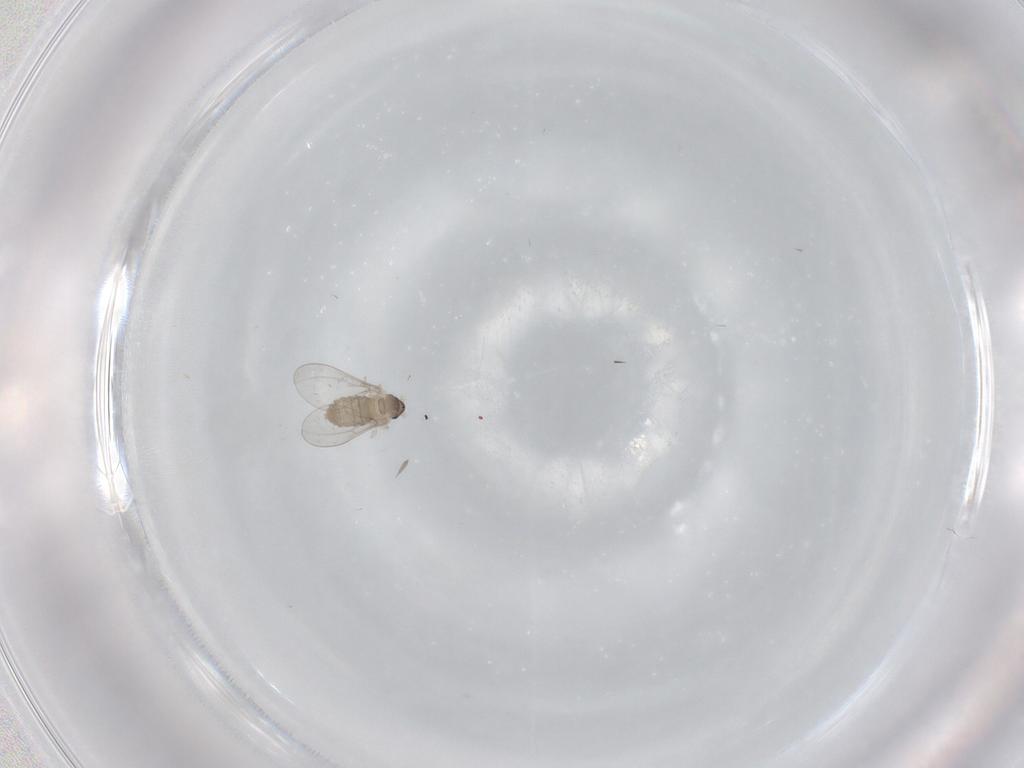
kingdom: Animalia
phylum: Arthropoda
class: Insecta
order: Diptera
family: Cecidomyiidae
